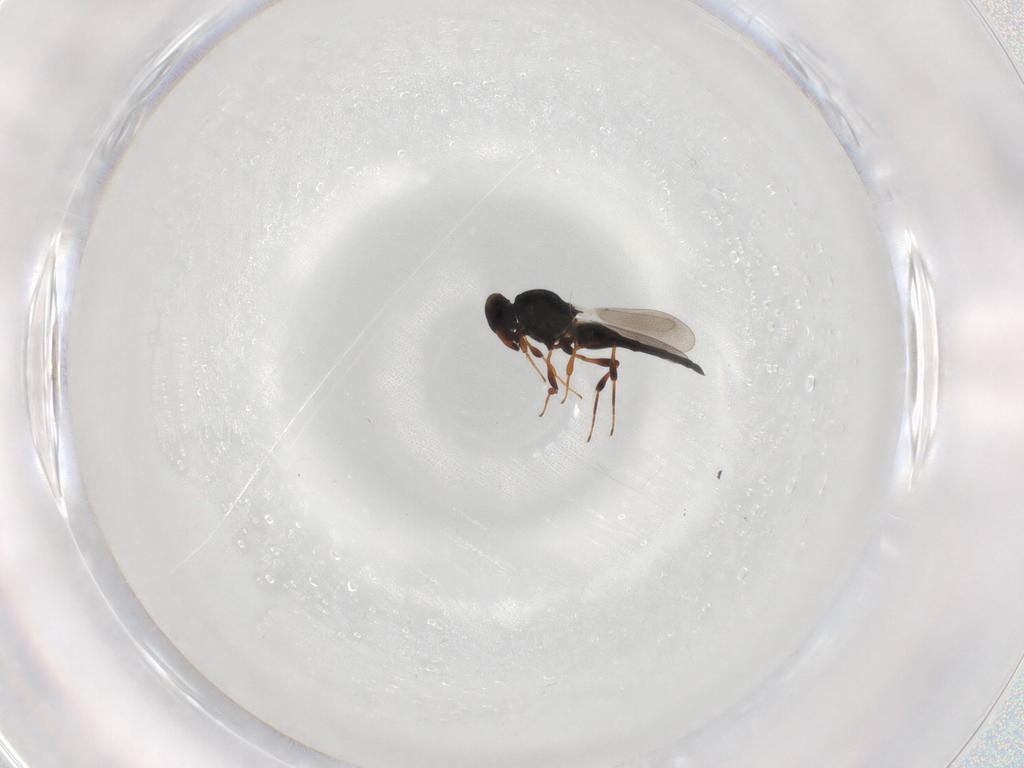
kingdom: Animalia
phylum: Arthropoda
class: Insecta
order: Hymenoptera
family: Platygastridae
